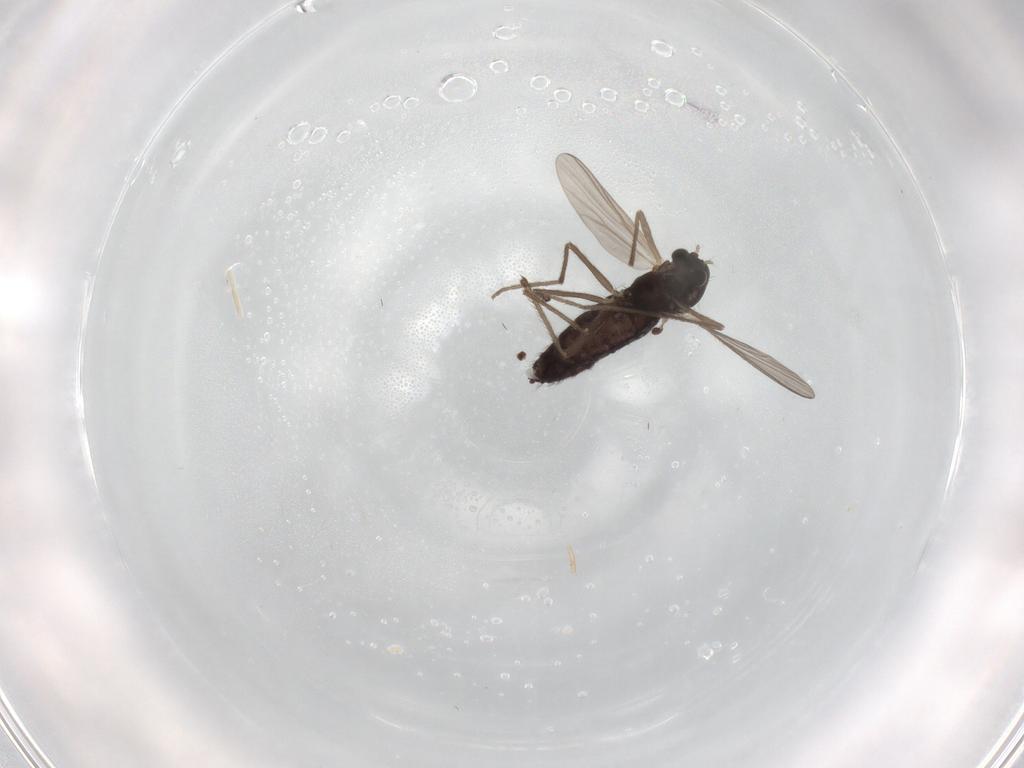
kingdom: Animalia
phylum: Arthropoda
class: Insecta
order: Diptera
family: Chironomidae
